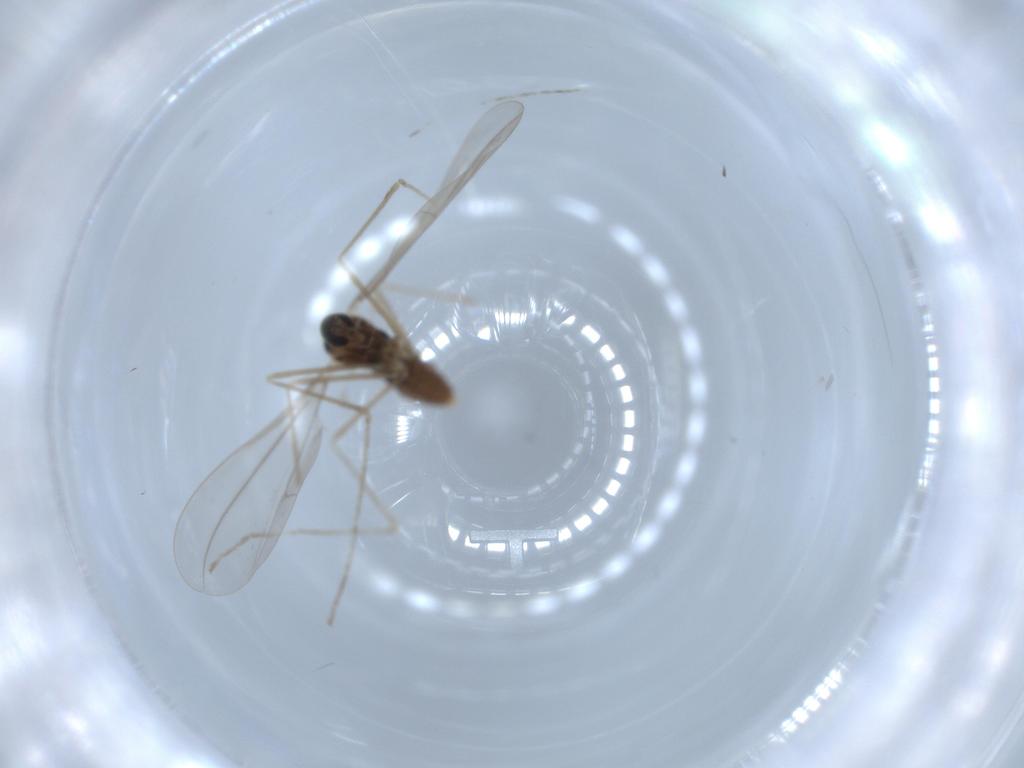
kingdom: Animalia
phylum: Arthropoda
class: Insecta
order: Diptera
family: Cecidomyiidae
